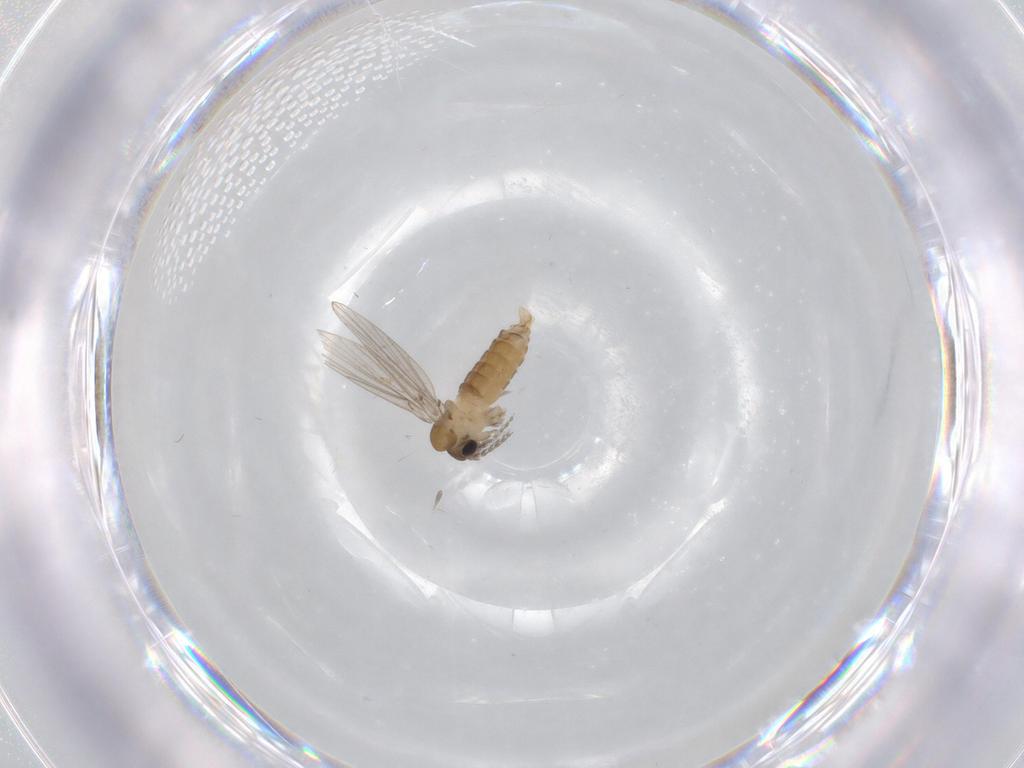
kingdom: Animalia
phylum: Arthropoda
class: Insecta
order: Diptera
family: Psychodidae
